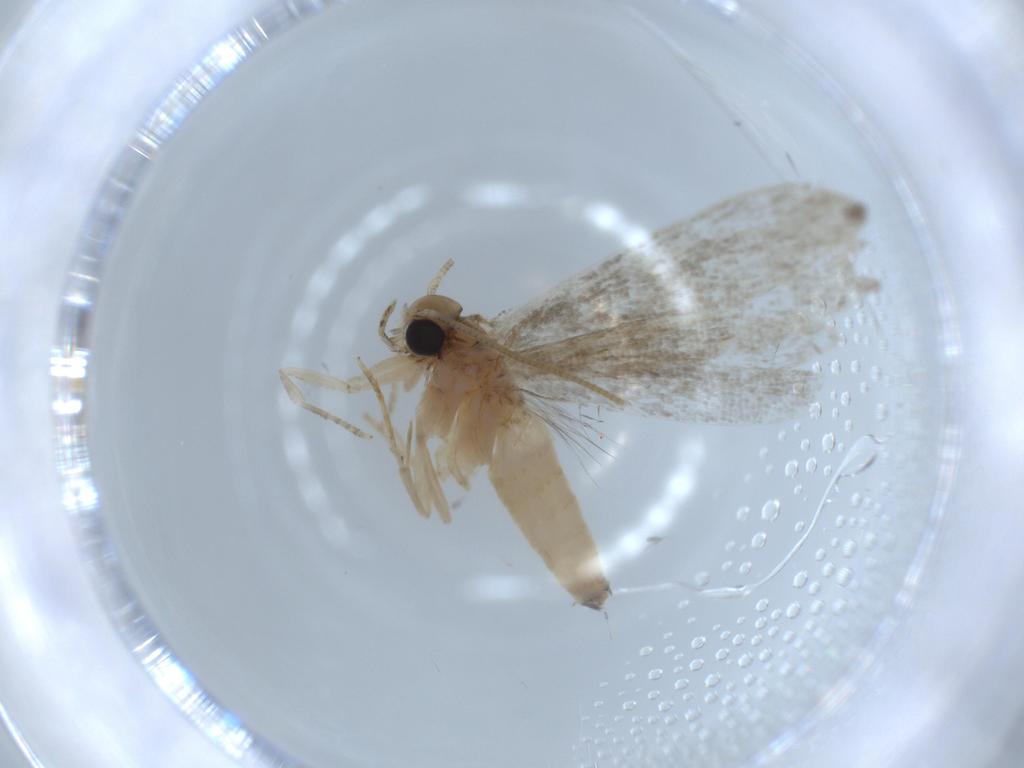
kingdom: Animalia
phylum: Arthropoda
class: Insecta
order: Lepidoptera
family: Tineidae
